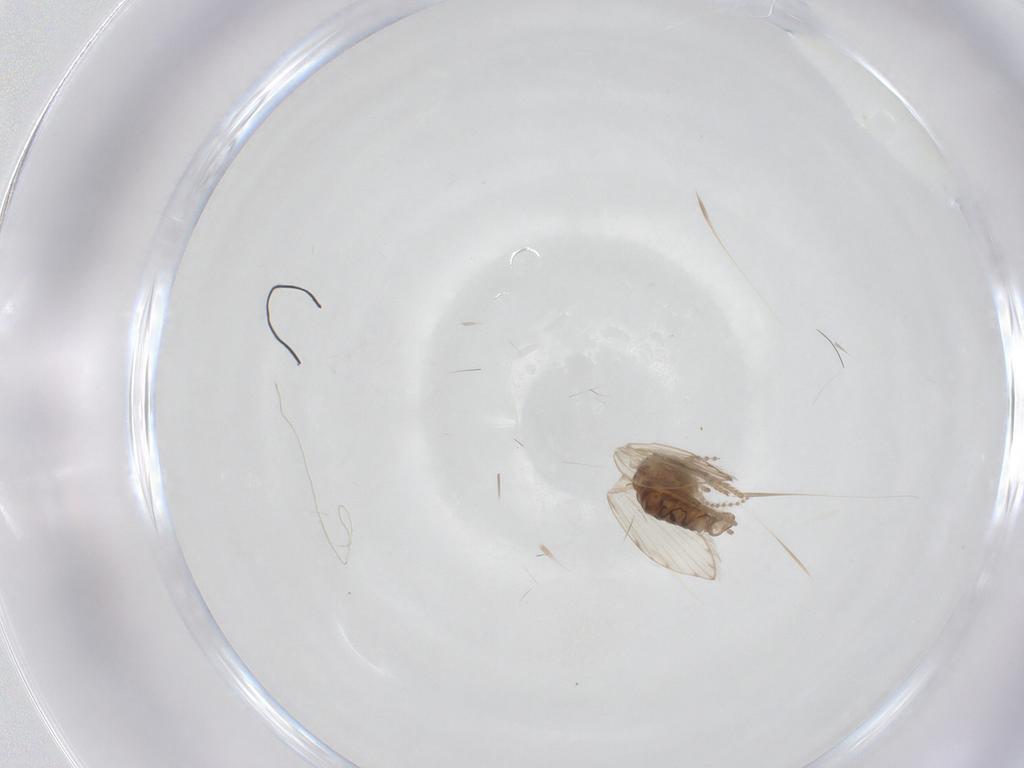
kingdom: Animalia
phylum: Arthropoda
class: Insecta
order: Diptera
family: Psychodidae
